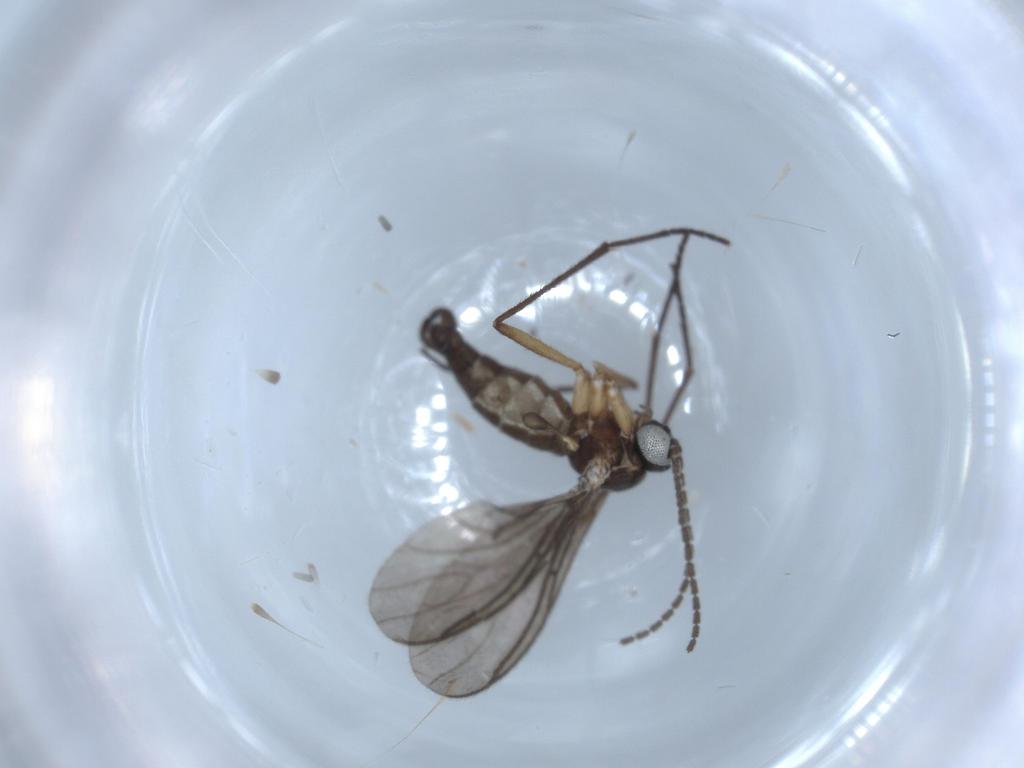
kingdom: Animalia
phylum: Arthropoda
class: Insecta
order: Diptera
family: Sciaridae
